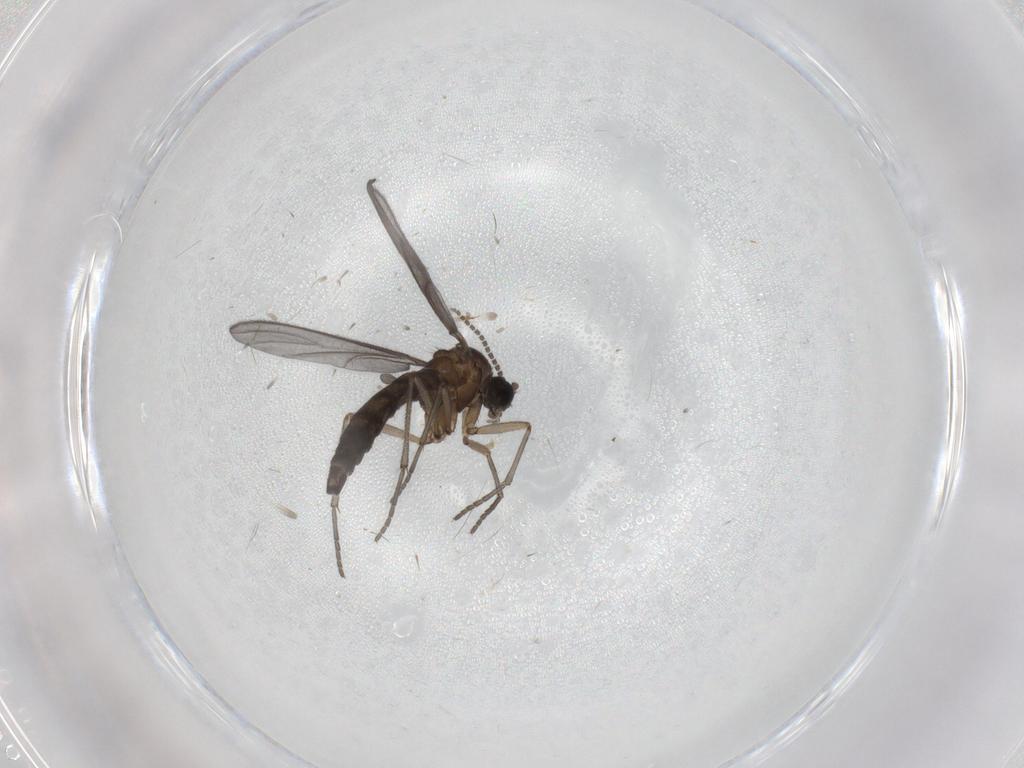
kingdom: Animalia
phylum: Arthropoda
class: Insecta
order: Diptera
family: Sciaridae
